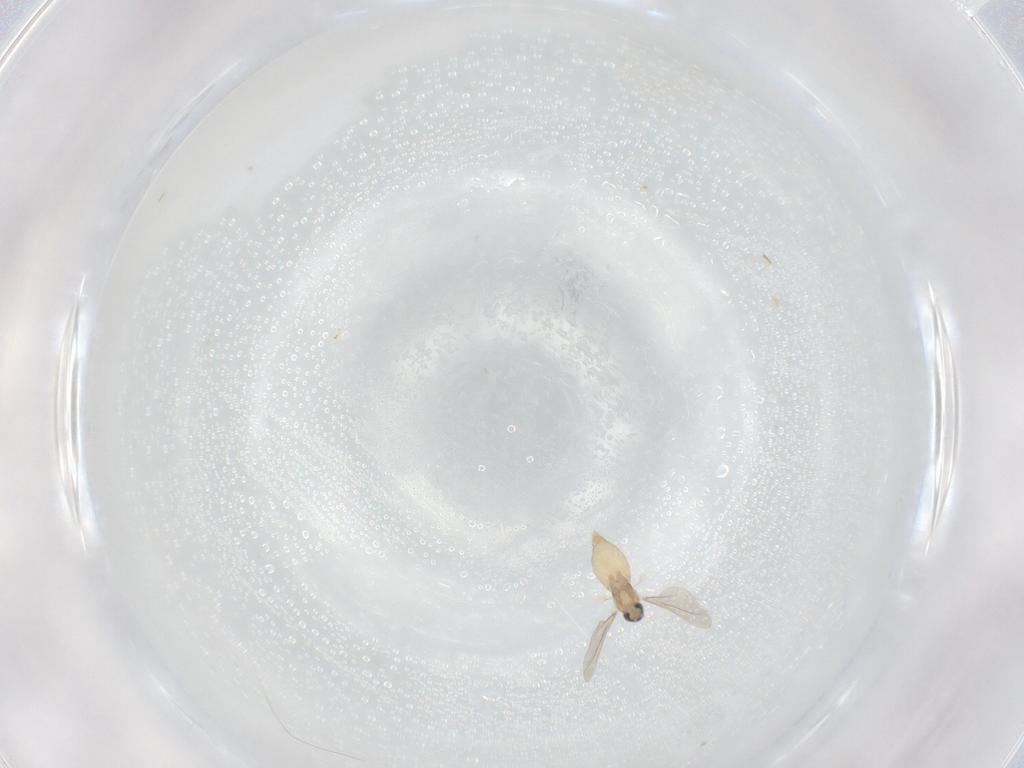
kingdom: Animalia
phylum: Arthropoda
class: Insecta
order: Diptera
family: Cecidomyiidae
